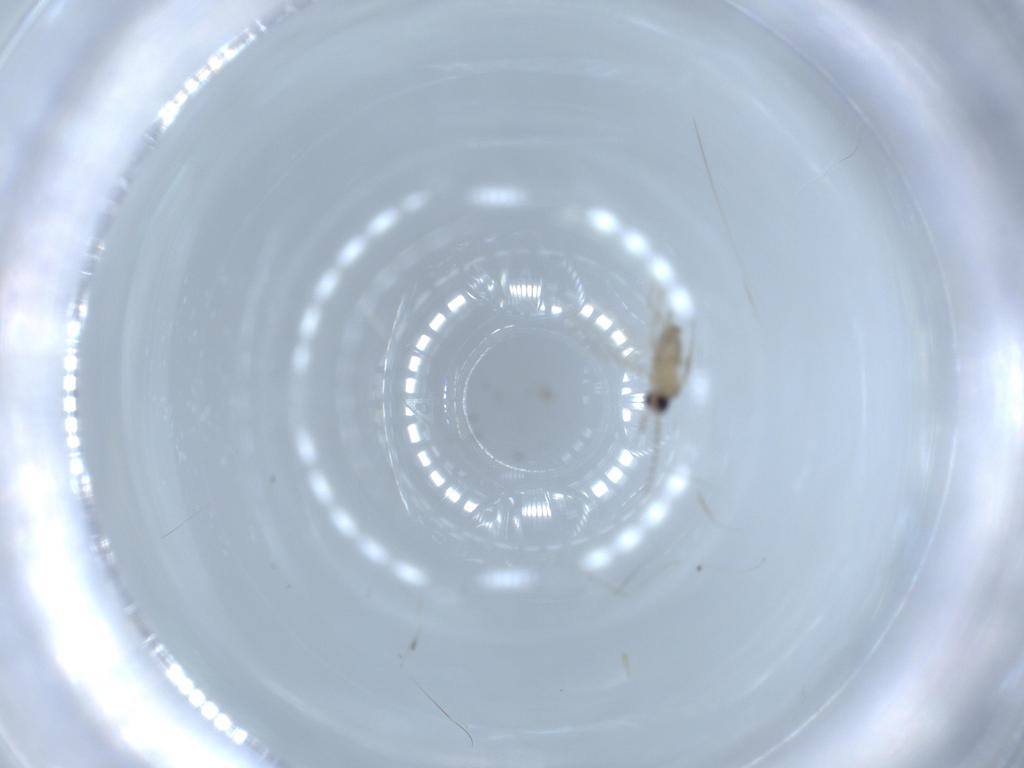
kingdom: Animalia
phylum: Arthropoda
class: Insecta
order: Diptera
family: Cecidomyiidae
